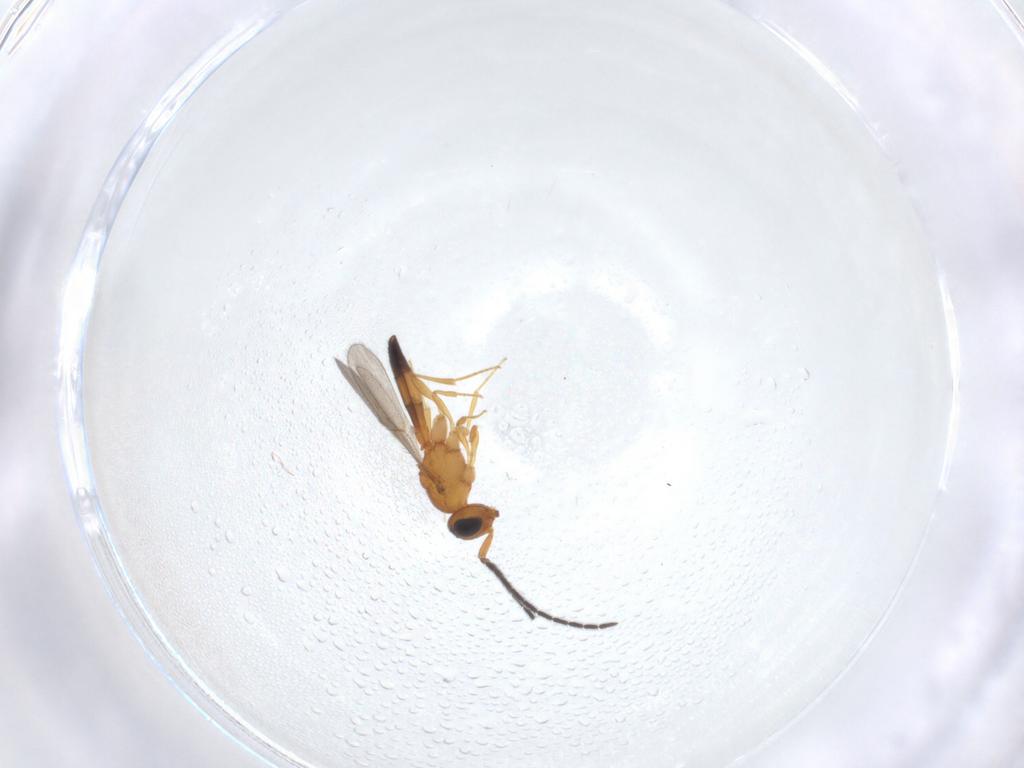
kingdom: Animalia
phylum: Arthropoda
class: Insecta
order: Hymenoptera
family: Scelionidae
